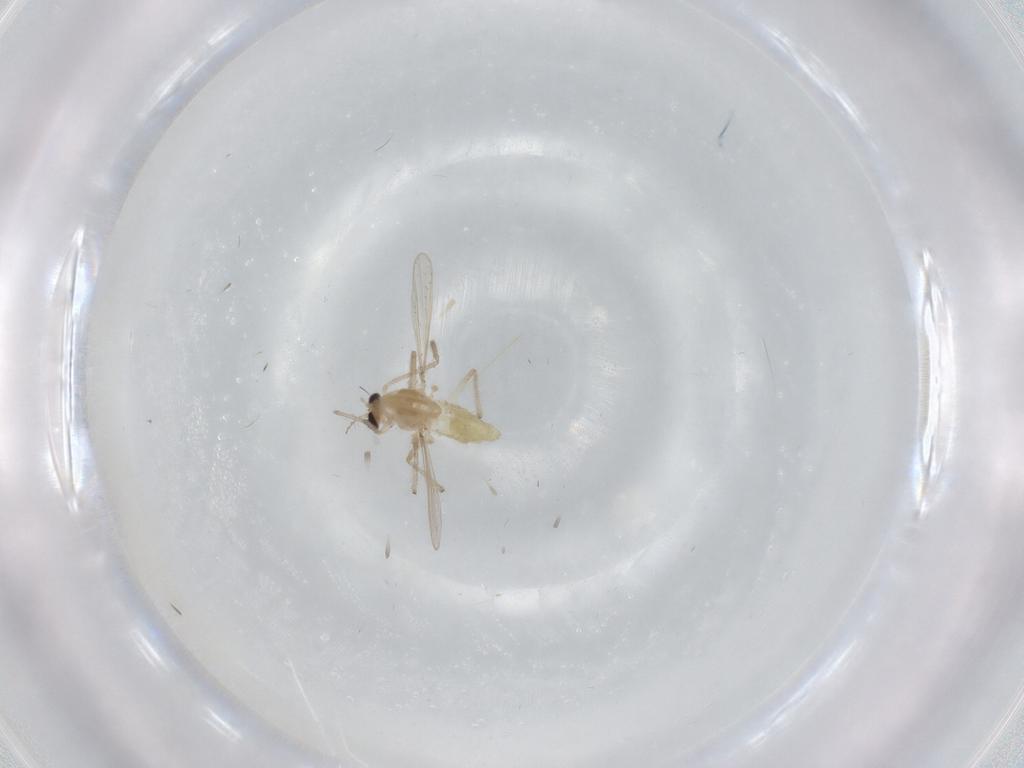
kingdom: Animalia
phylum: Arthropoda
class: Insecta
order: Diptera
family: Chironomidae
